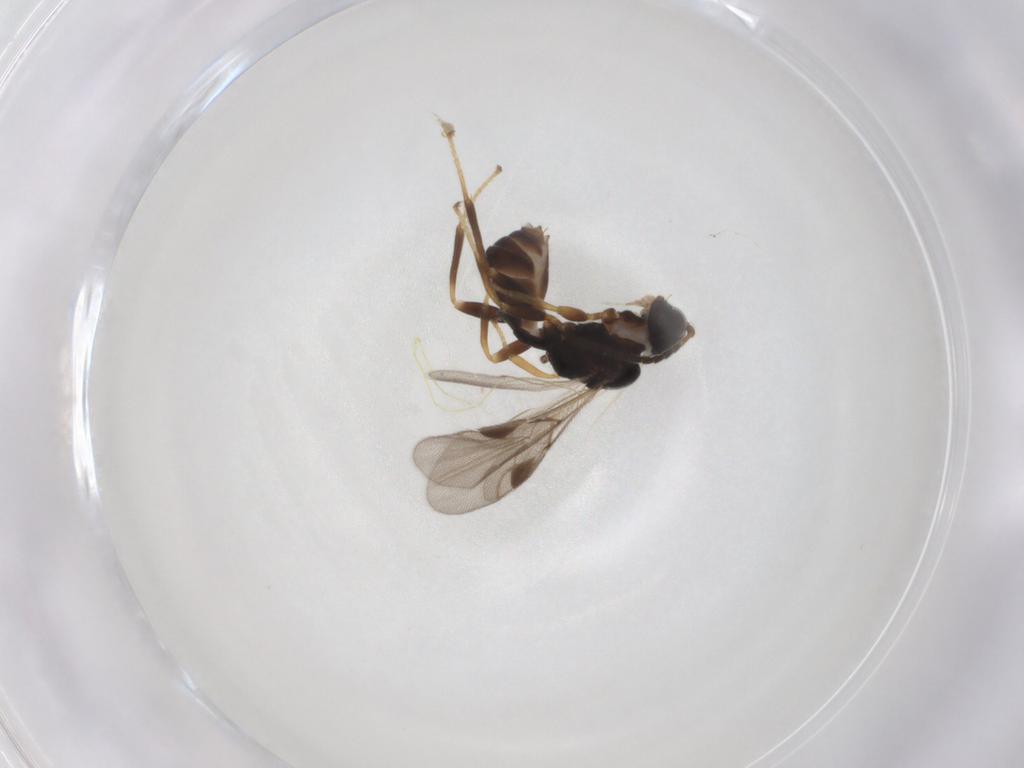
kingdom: Animalia
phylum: Arthropoda
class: Insecta
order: Hymenoptera
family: Braconidae
